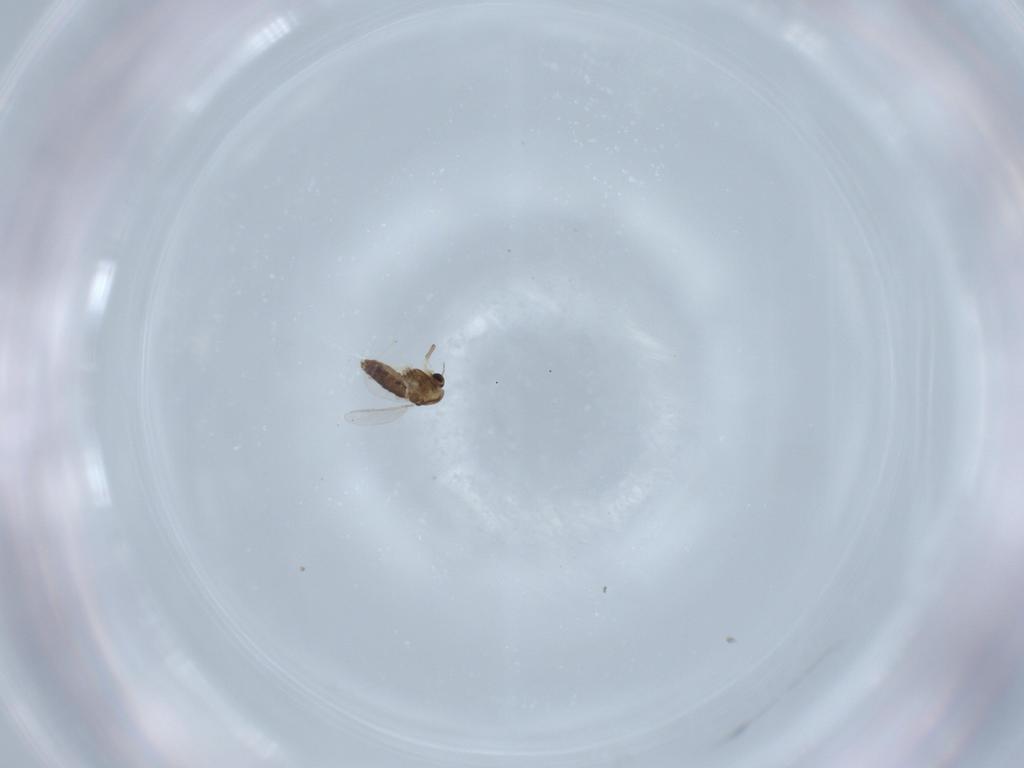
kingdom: Animalia
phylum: Arthropoda
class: Insecta
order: Diptera
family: Chironomidae
